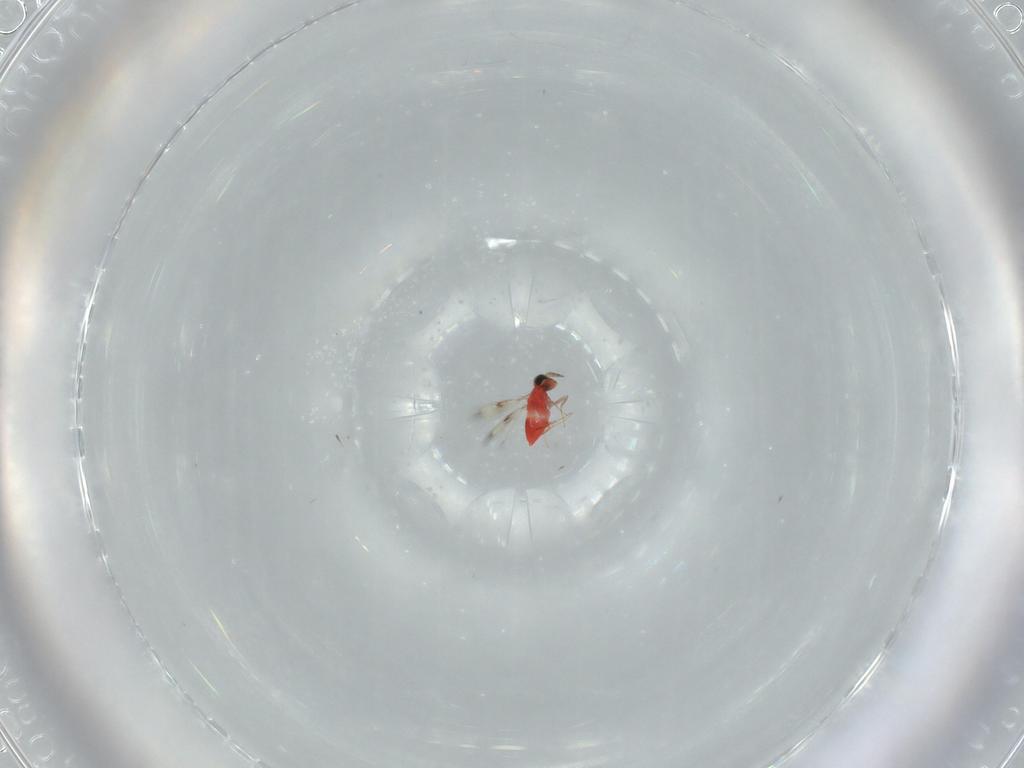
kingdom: Animalia
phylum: Arthropoda
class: Insecta
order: Hymenoptera
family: Trichogrammatidae
